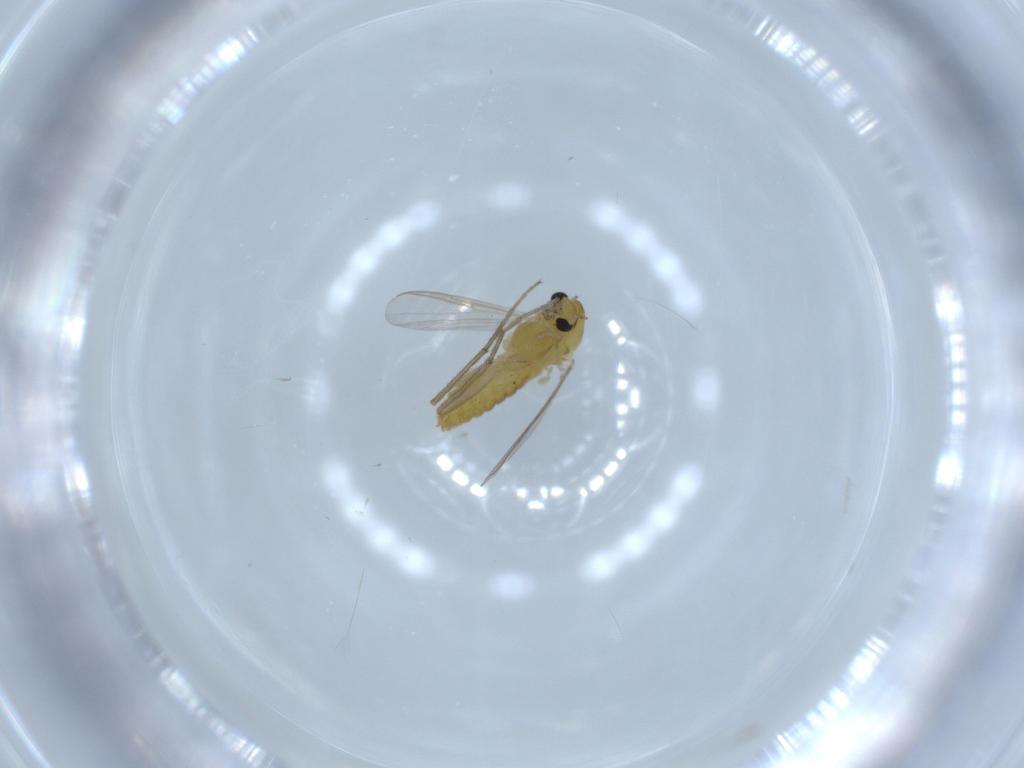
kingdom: Animalia
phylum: Arthropoda
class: Insecta
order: Diptera
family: Chironomidae
